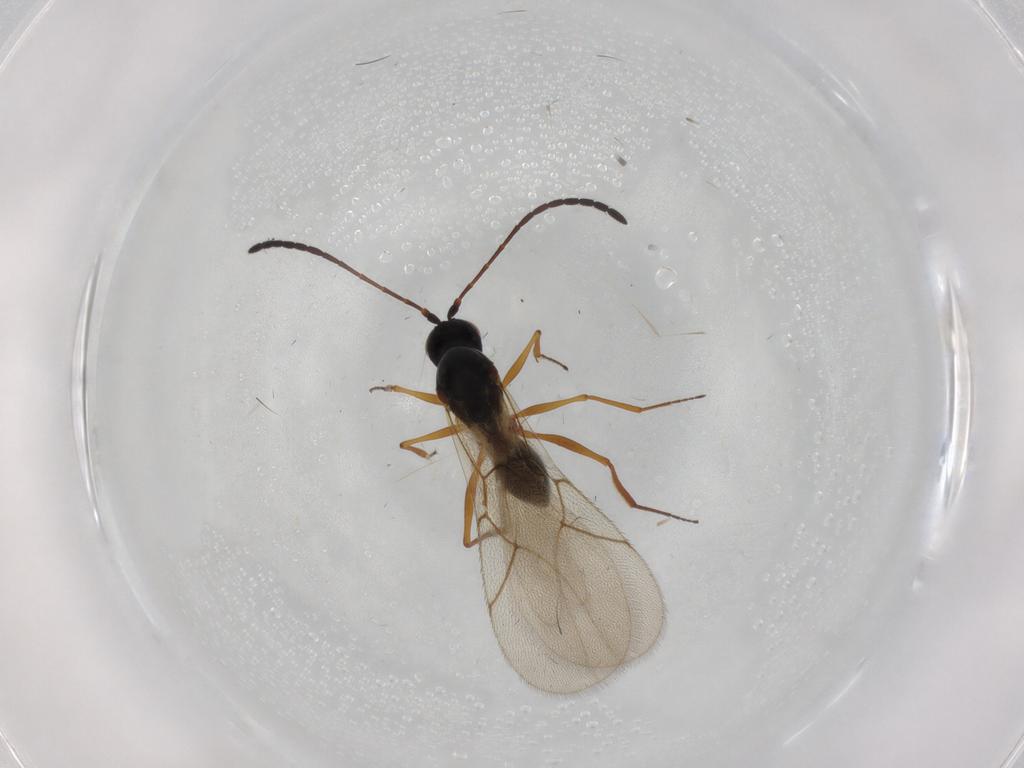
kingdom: Animalia
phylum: Arthropoda
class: Insecta
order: Hymenoptera
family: Figitidae
